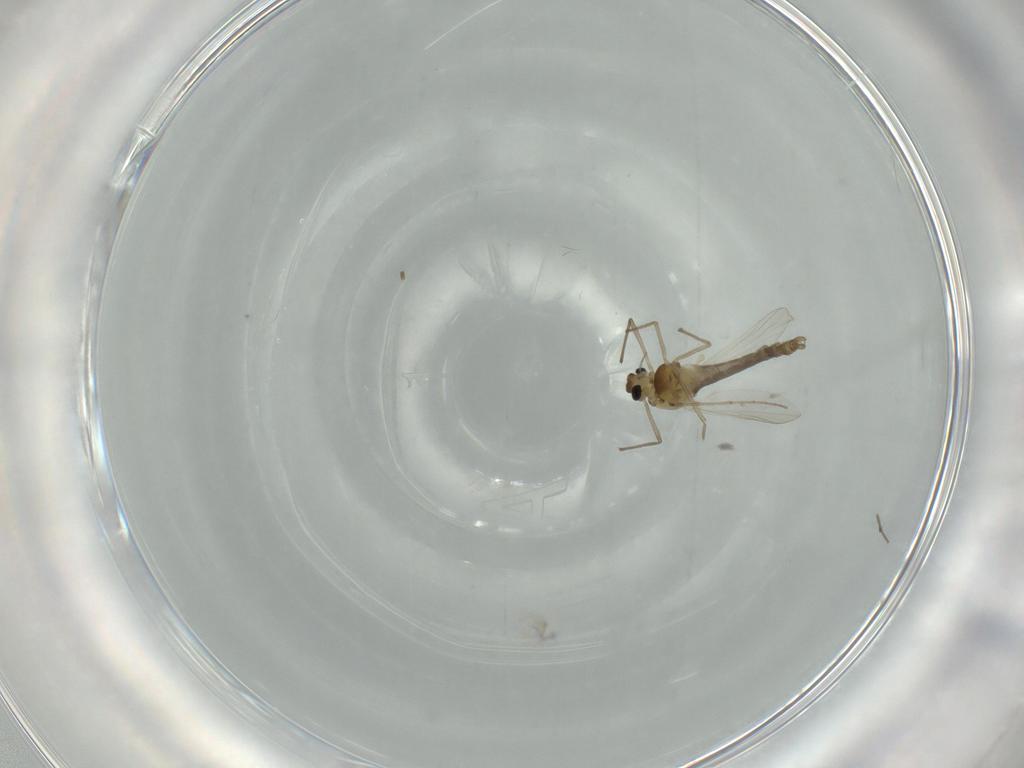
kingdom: Animalia
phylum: Arthropoda
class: Insecta
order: Diptera
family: Chironomidae
